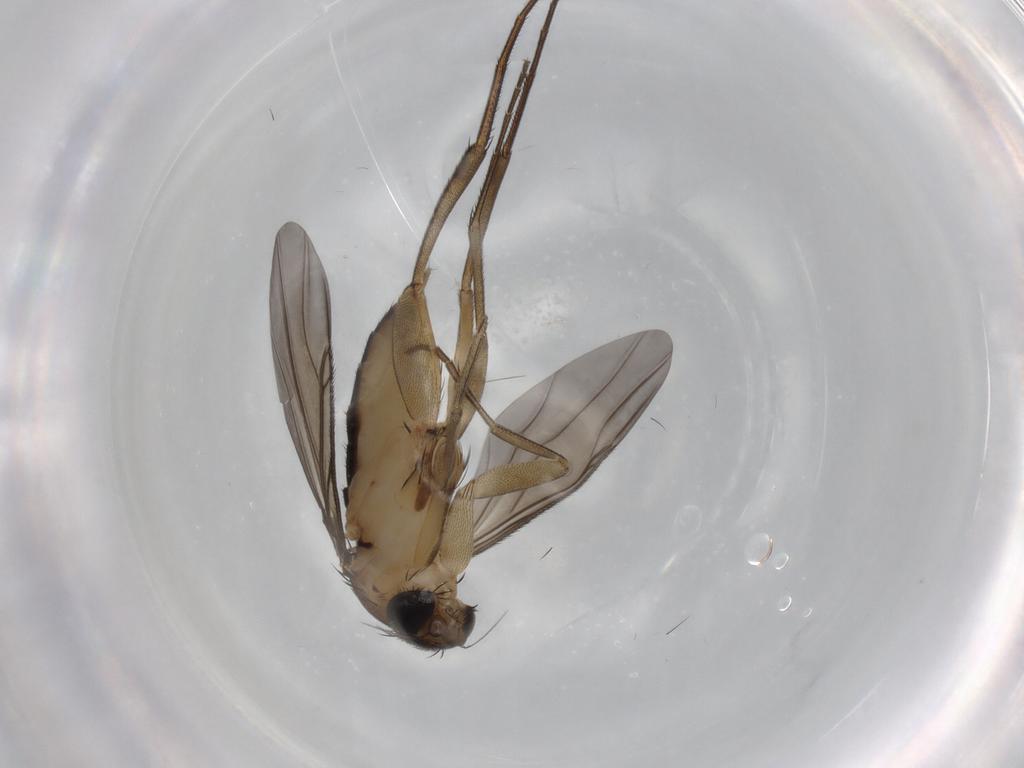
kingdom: Animalia
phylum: Arthropoda
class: Insecta
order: Diptera
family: Phoridae
